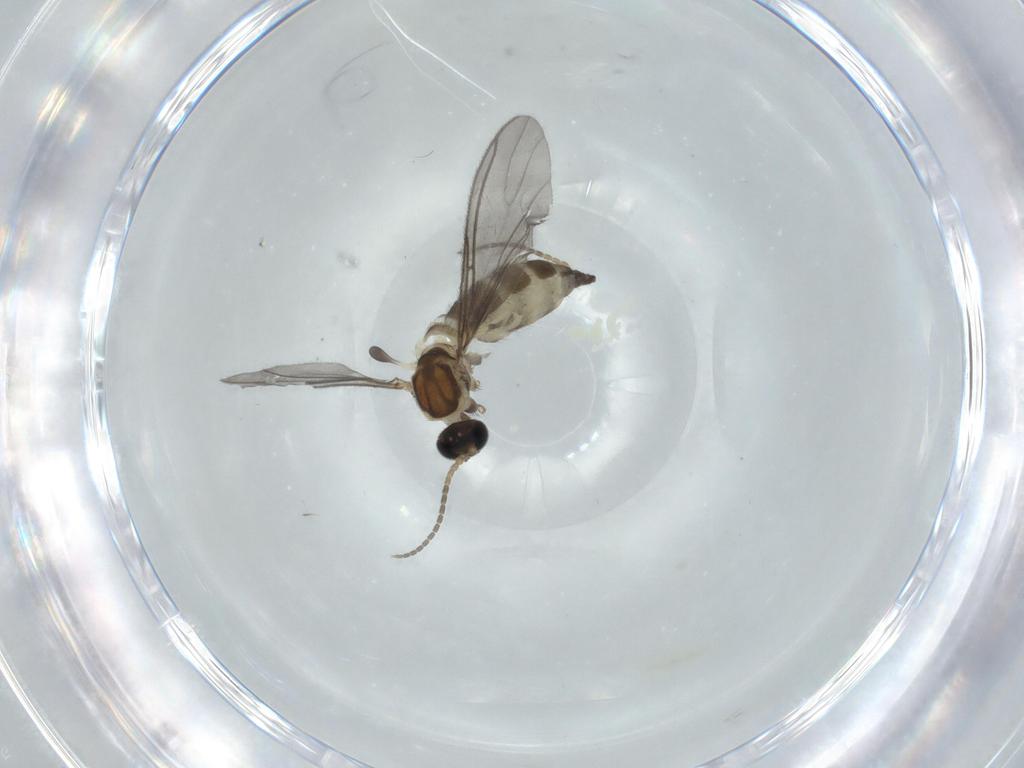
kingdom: Animalia
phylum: Arthropoda
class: Insecta
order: Diptera
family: Sciaridae
